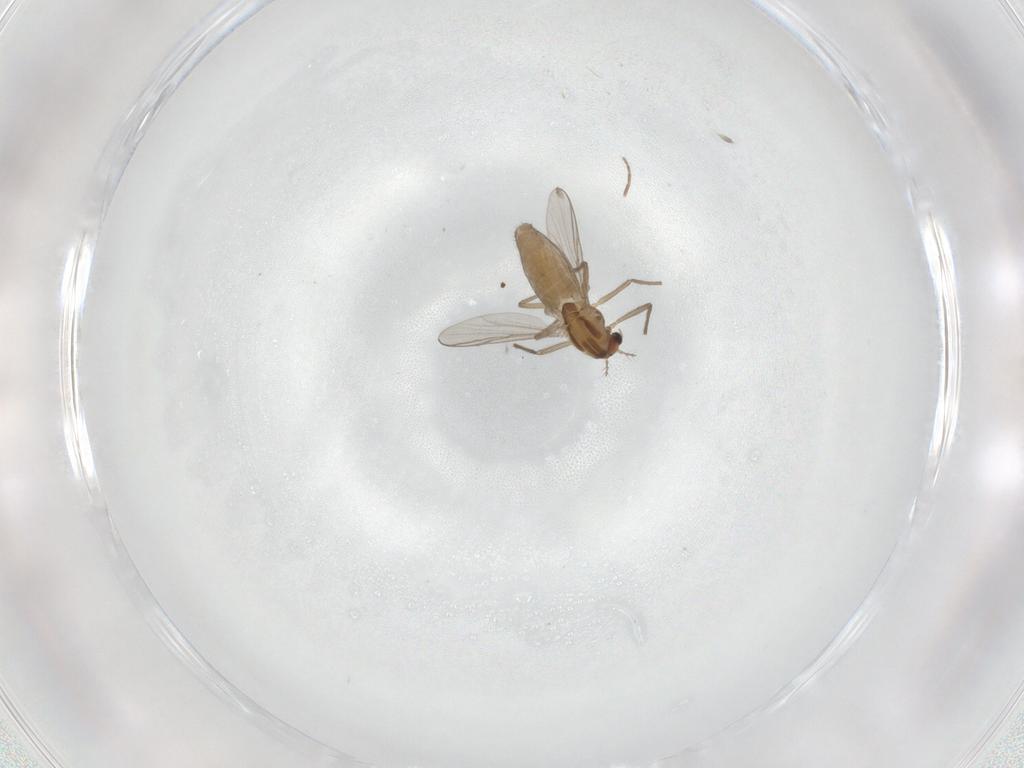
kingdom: Animalia
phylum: Arthropoda
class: Insecta
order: Diptera
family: Chironomidae
